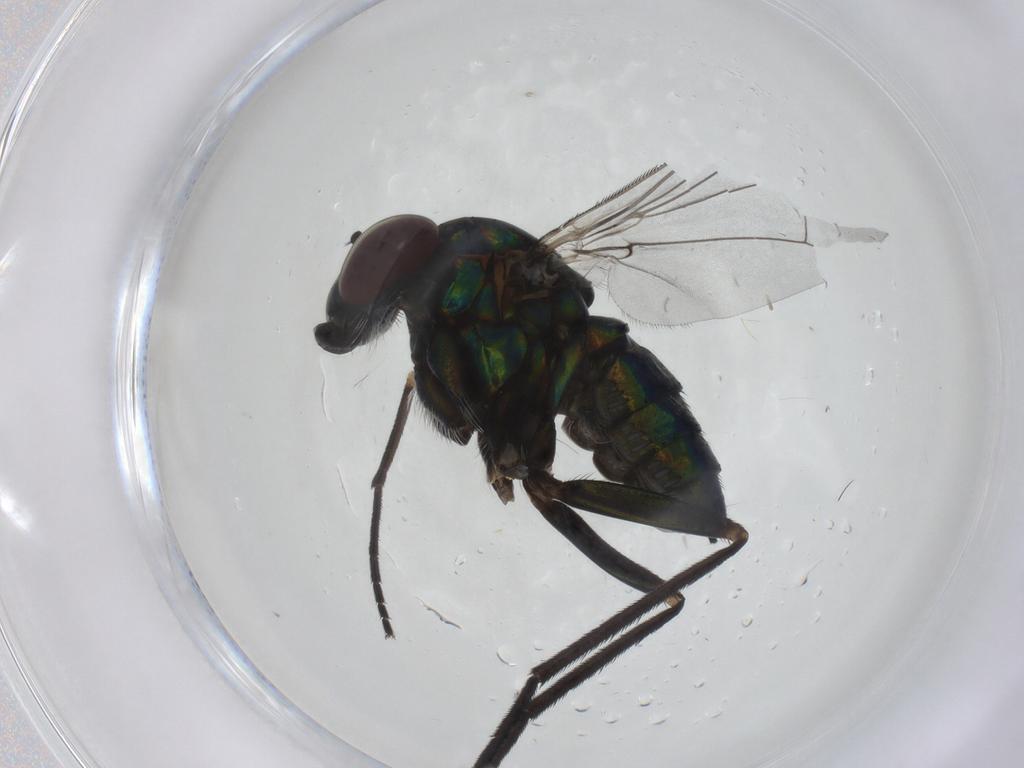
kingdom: Animalia
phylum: Arthropoda
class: Insecta
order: Diptera
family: Dolichopodidae
